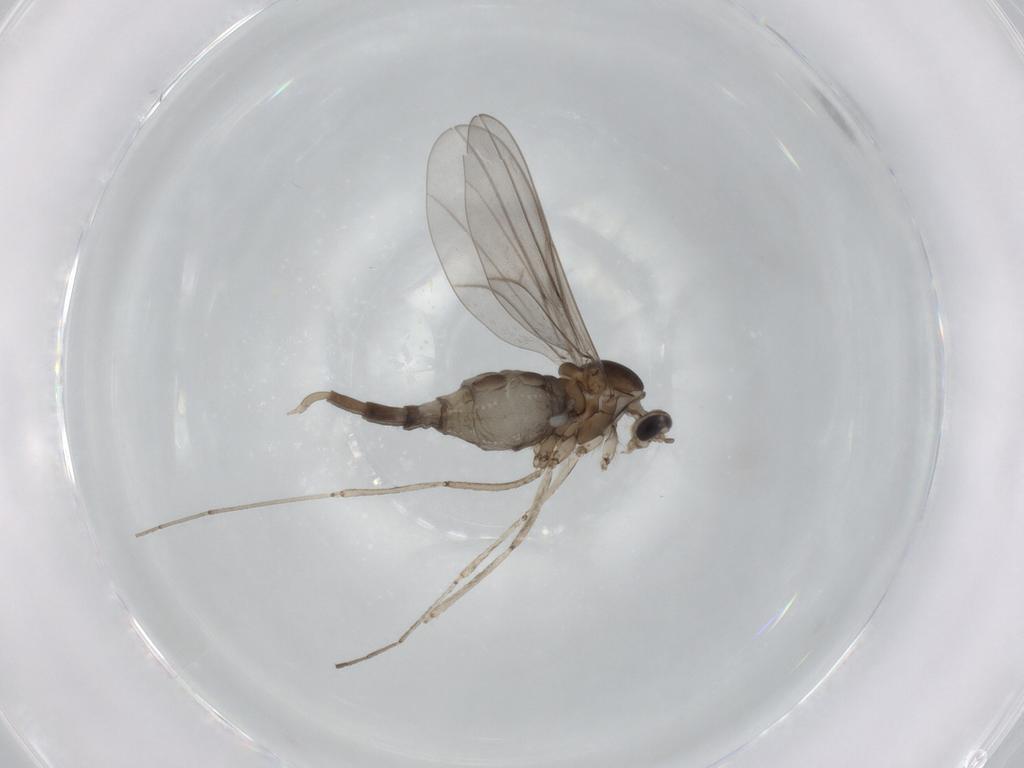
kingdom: Animalia
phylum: Arthropoda
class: Insecta
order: Diptera
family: Cecidomyiidae
